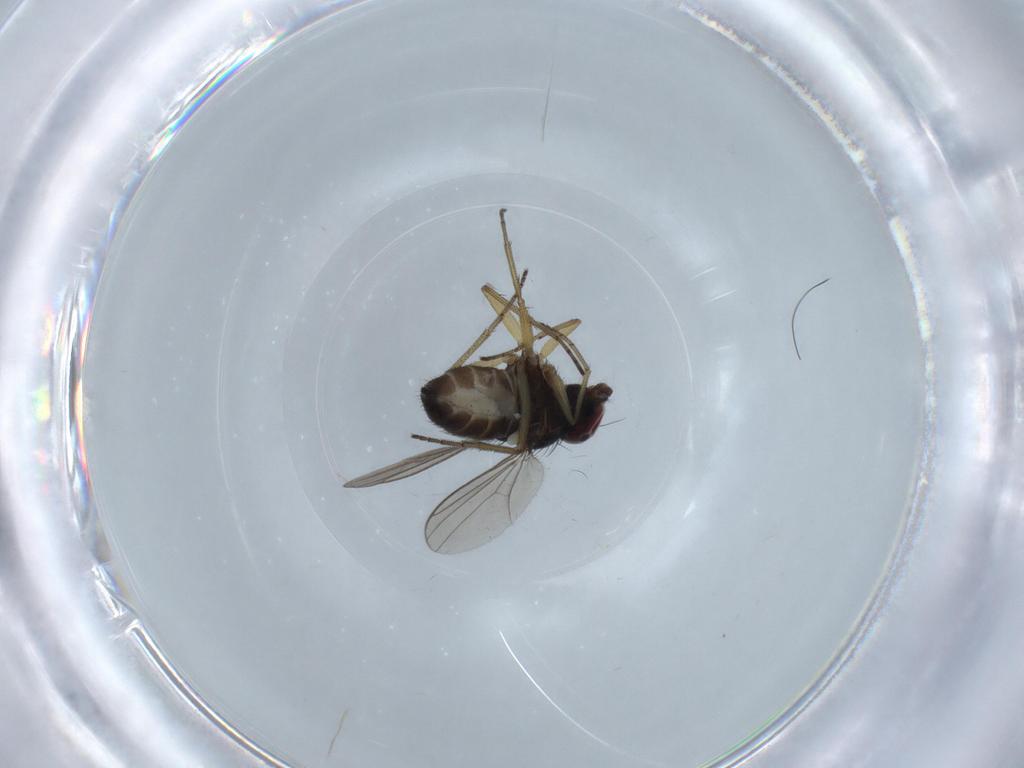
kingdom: Animalia
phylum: Arthropoda
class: Insecta
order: Diptera
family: Dolichopodidae
